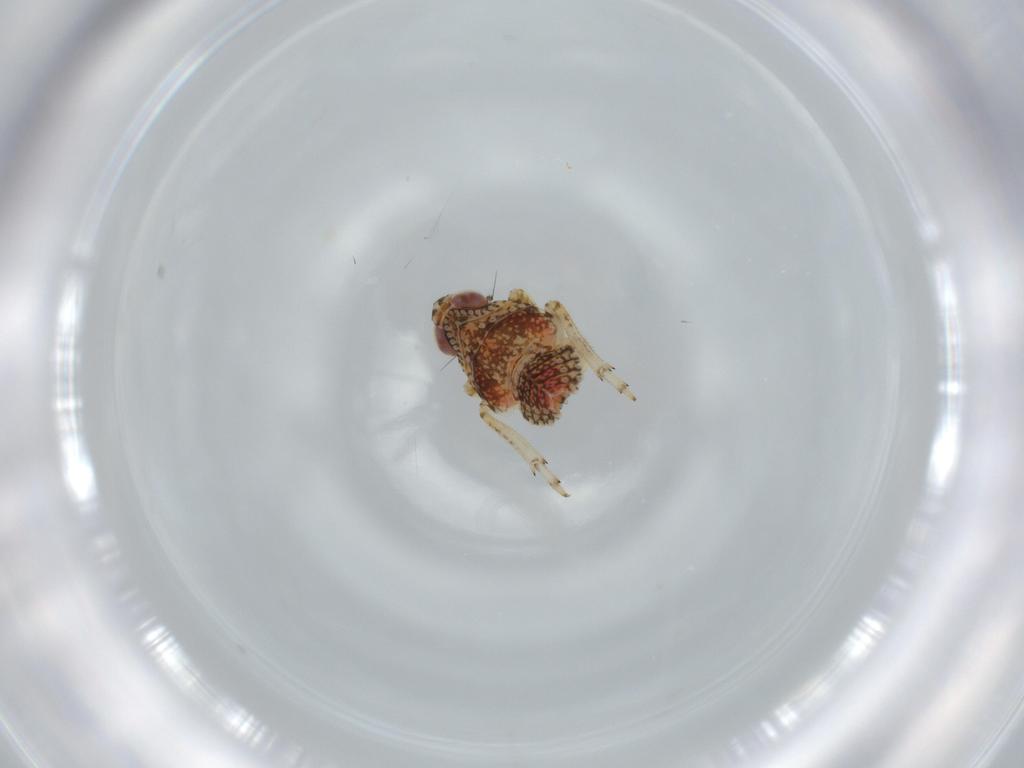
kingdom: Animalia
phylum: Arthropoda
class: Insecta
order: Hemiptera
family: Issidae
